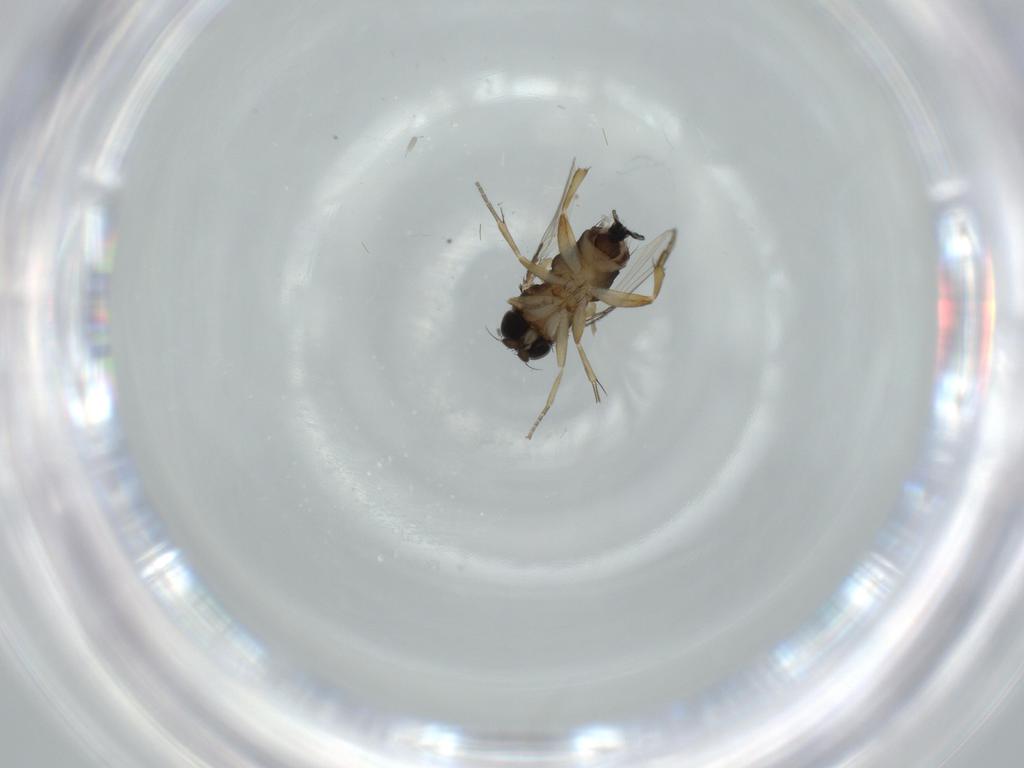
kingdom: Animalia
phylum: Arthropoda
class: Insecta
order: Diptera
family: Phoridae
